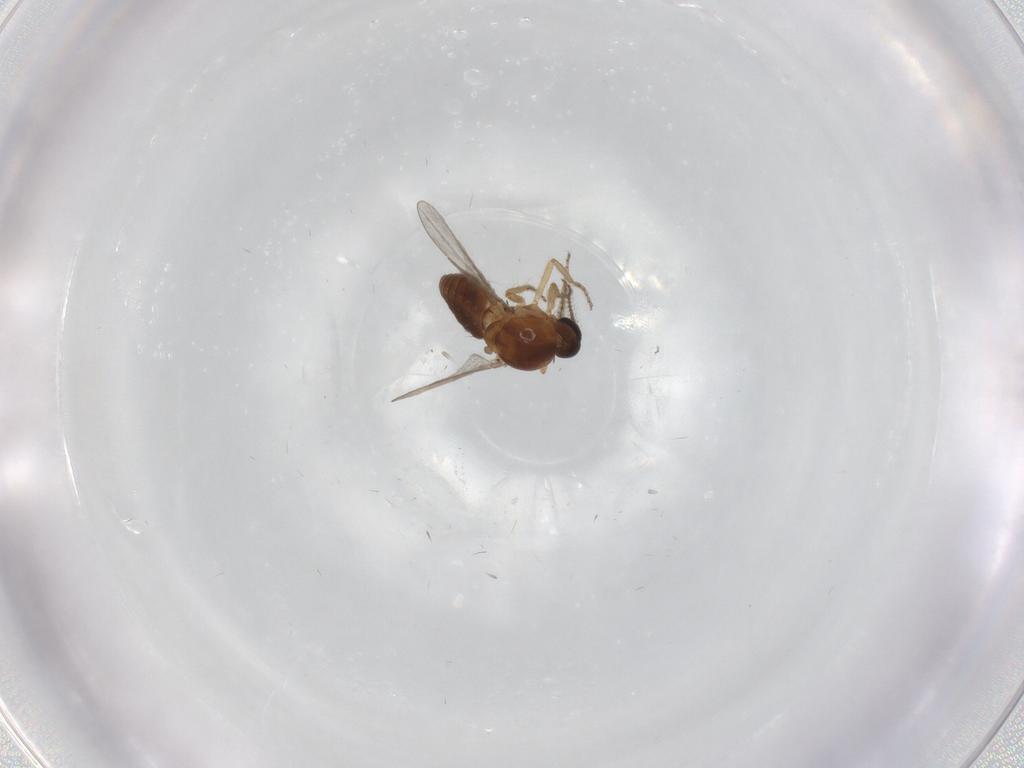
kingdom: Animalia
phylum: Arthropoda
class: Insecta
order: Diptera
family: Ceratopogonidae
